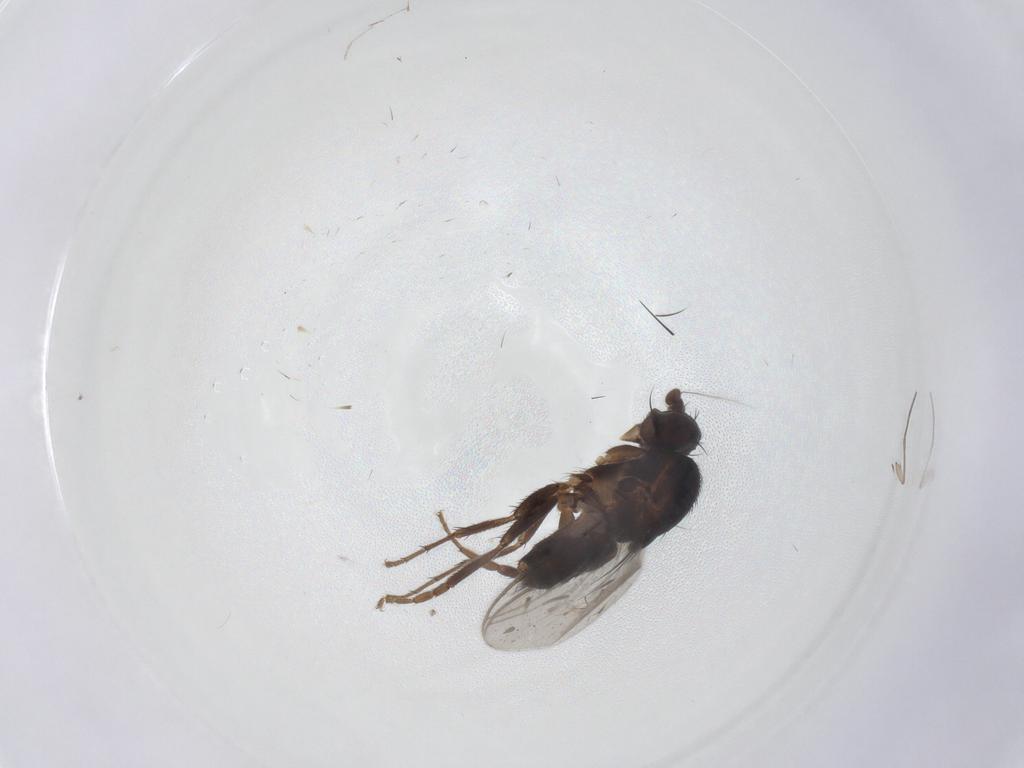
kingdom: Animalia
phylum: Arthropoda
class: Insecta
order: Diptera
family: Sphaeroceridae
